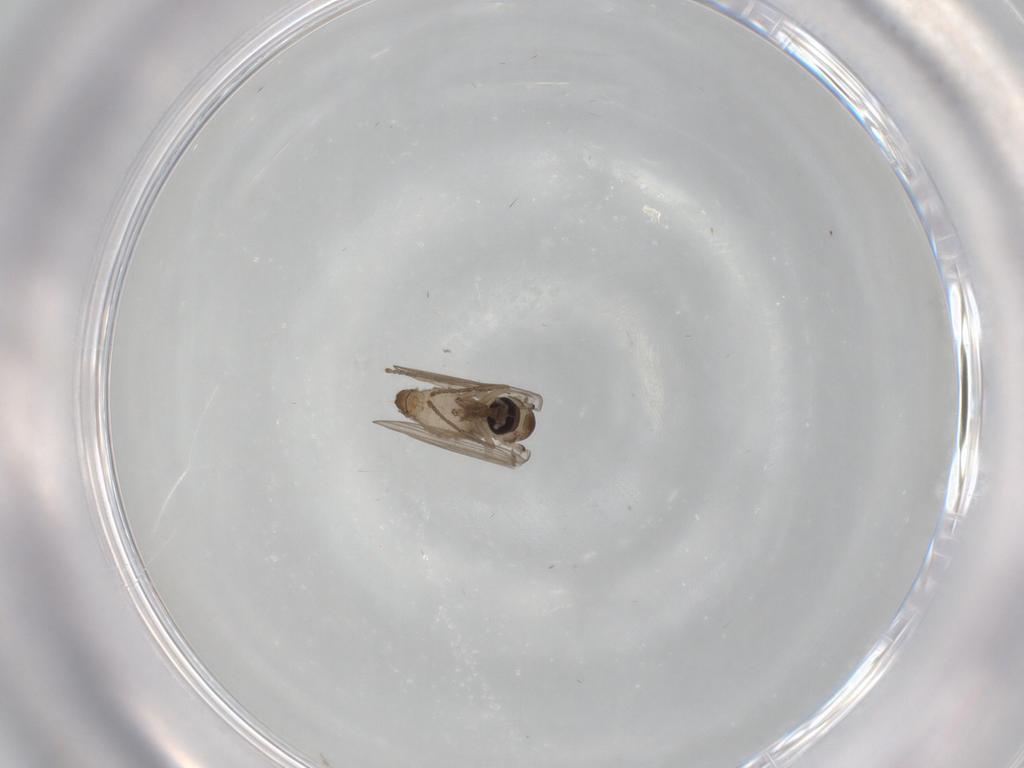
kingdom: Animalia
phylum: Arthropoda
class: Insecta
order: Diptera
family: Psychodidae
